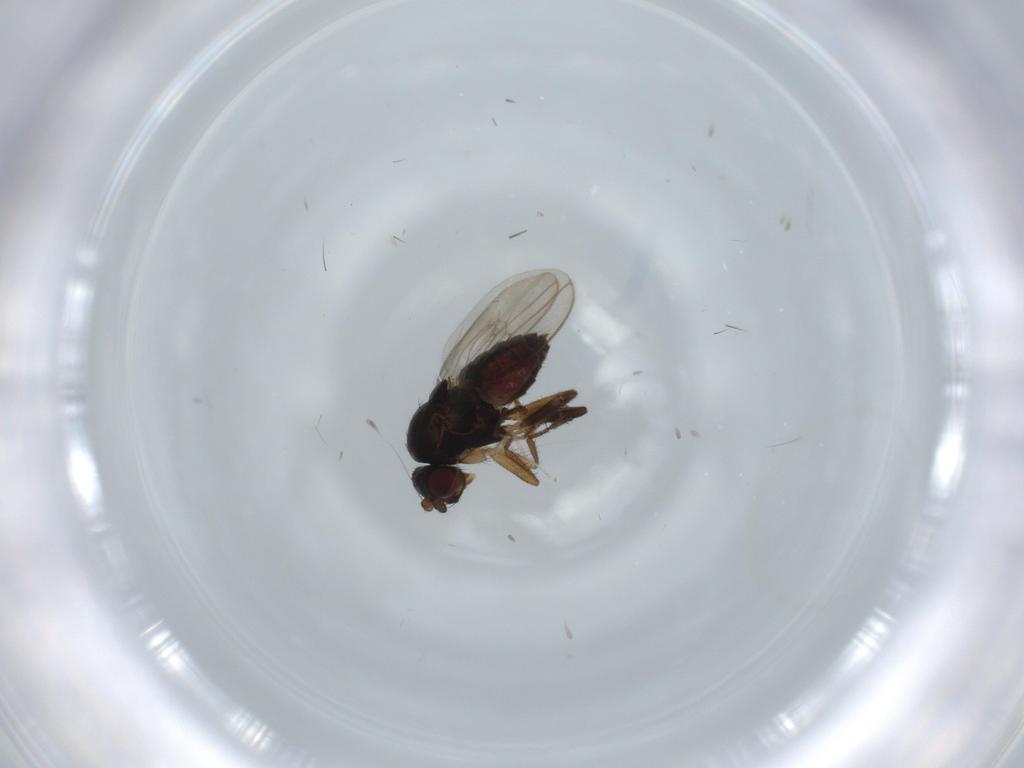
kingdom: Animalia
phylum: Arthropoda
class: Insecta
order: Diptera
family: Sphaeroceridae
